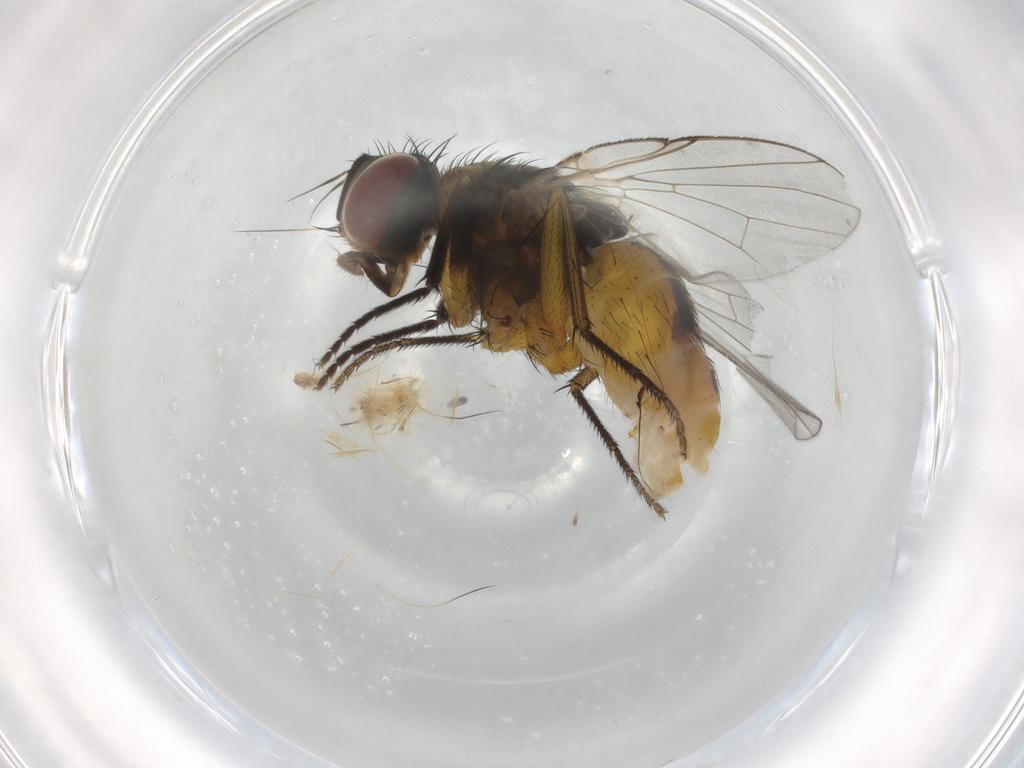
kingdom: Animalia
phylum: Arthropoda
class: Insecta
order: Diptera
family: Muscidae
